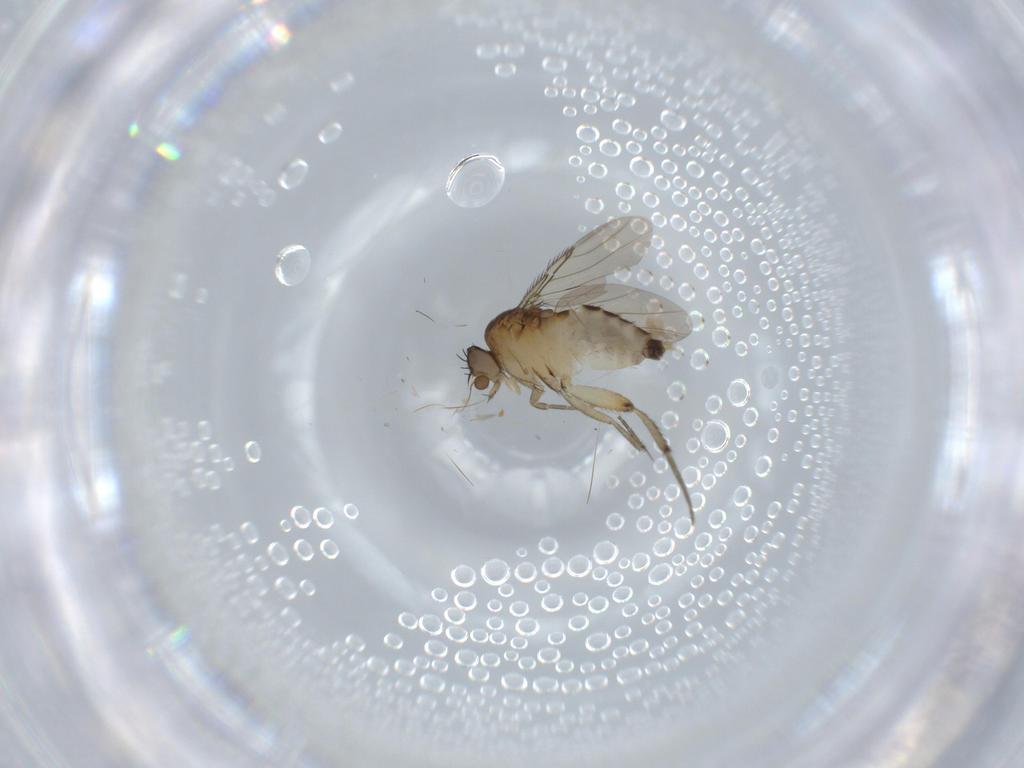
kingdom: Animalia
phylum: Arthropoda
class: Insecta
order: Diptera
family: Phoridae
